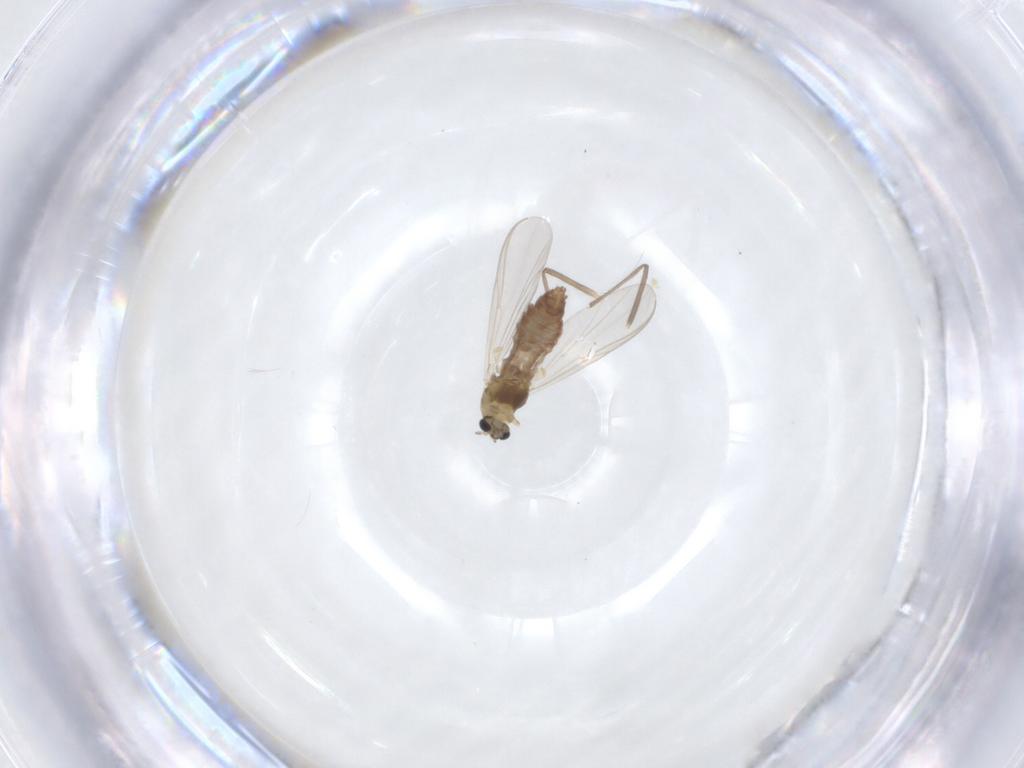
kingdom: Animalia
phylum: Arthropoda
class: Insecta
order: Diptera
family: Chironomidae
